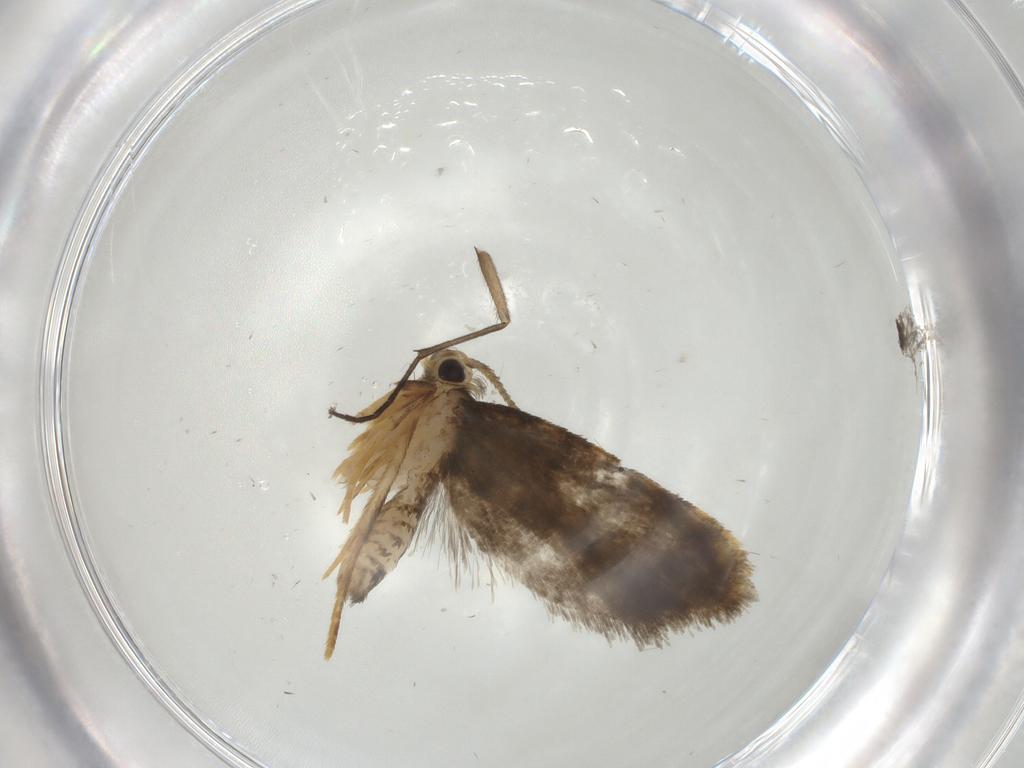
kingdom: Animalia
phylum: Arthropoda
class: Insecta
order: Lepidoptera
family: Psychidae
